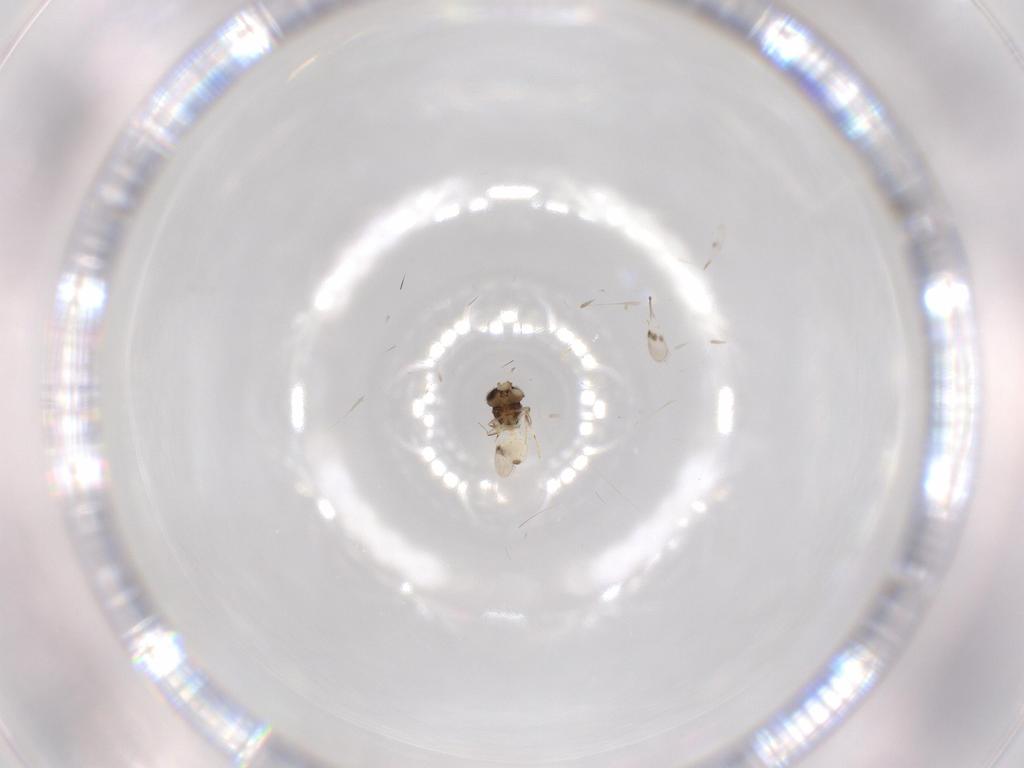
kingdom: Animalia
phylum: Arthropoda
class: Insecta
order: Hymenoptera
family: Scelionidae
